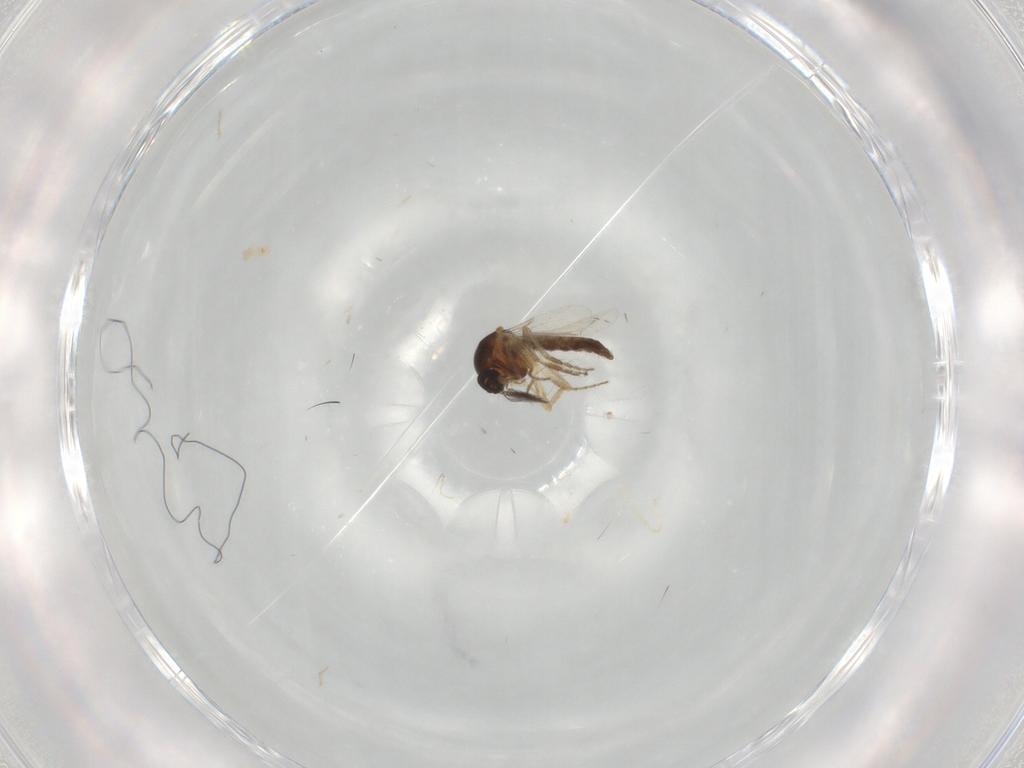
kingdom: Animalia
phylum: Arthropoda
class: Insecta
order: Diptera
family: Ceratopogonidae
